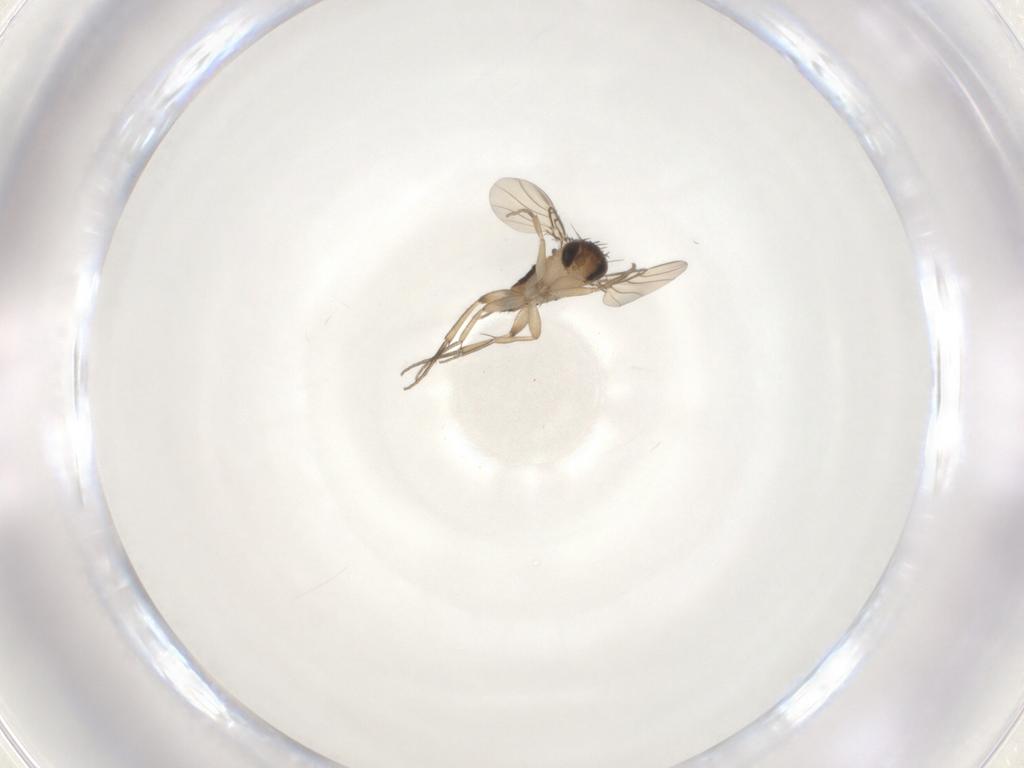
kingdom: Animalia
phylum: Arthropoda
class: Insecta
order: Diptera
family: Phoridae
